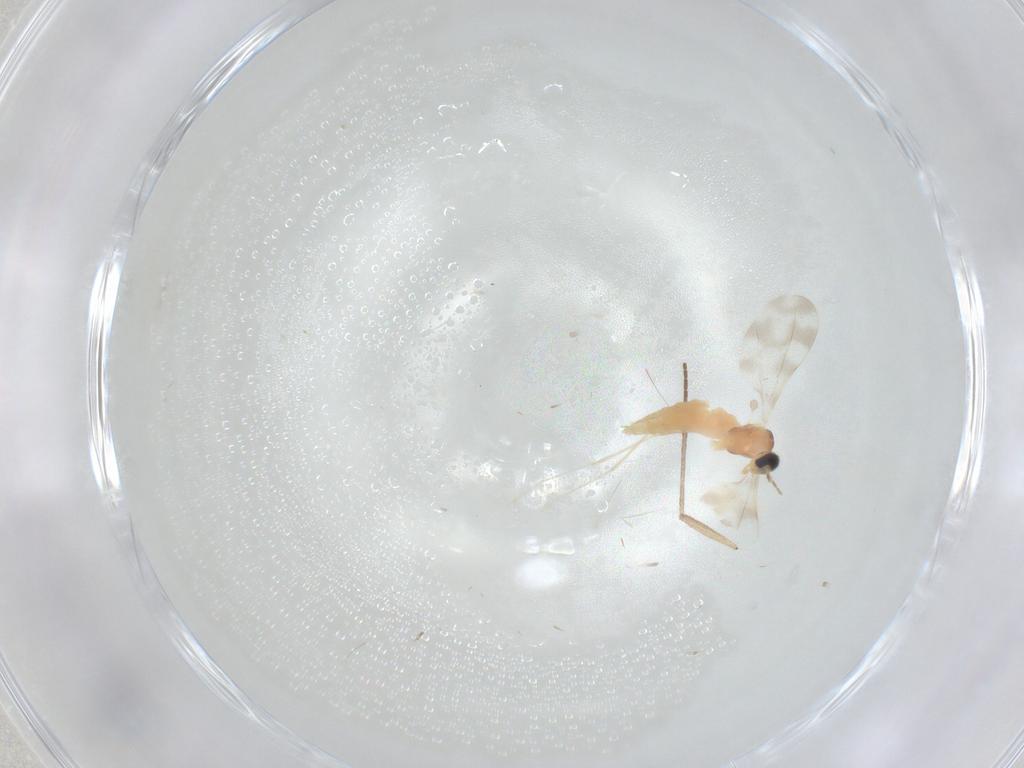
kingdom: Animalia
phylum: Arthropoda
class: Insecta
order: Diptera
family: Cecidomyiidae
